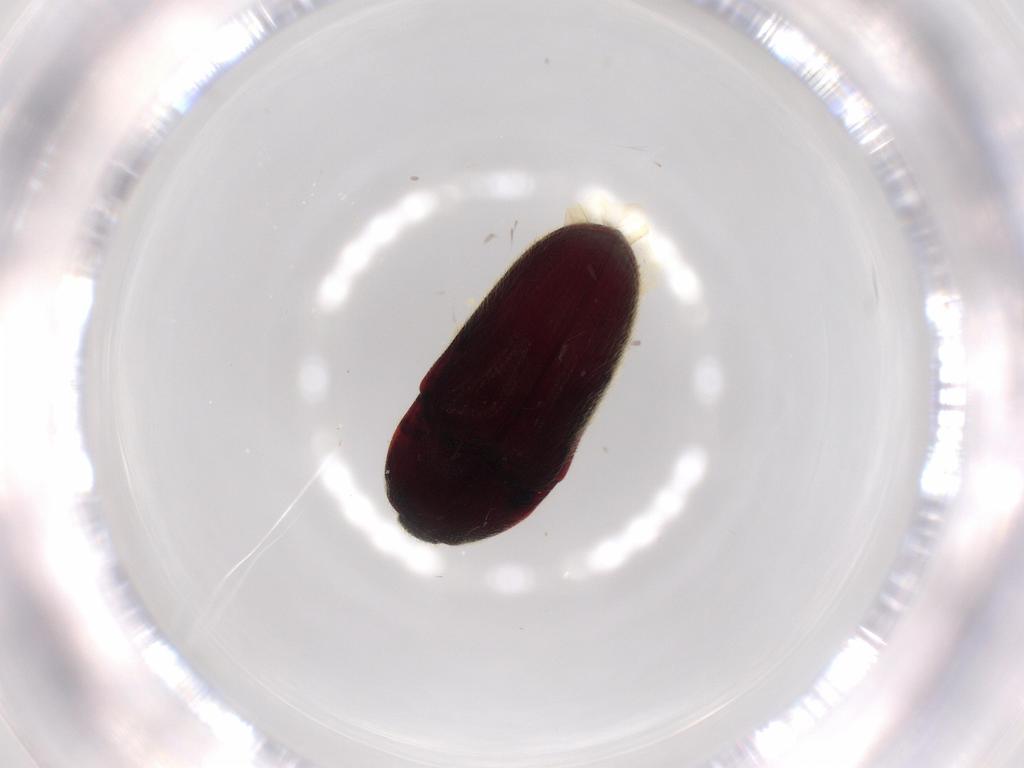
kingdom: Animalia
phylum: Arthropoda
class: Insecta
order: Coleoptera
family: Throscidae
